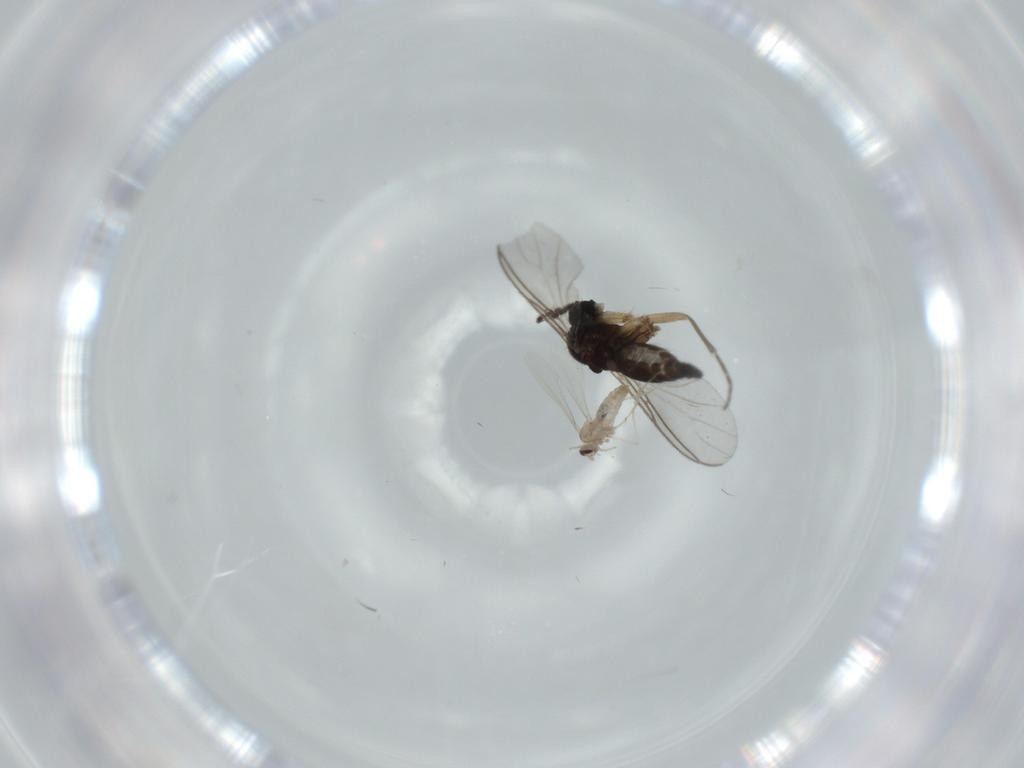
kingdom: Animalia
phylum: Arthropoda
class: Insecta
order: Diptera
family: Sciaridae
